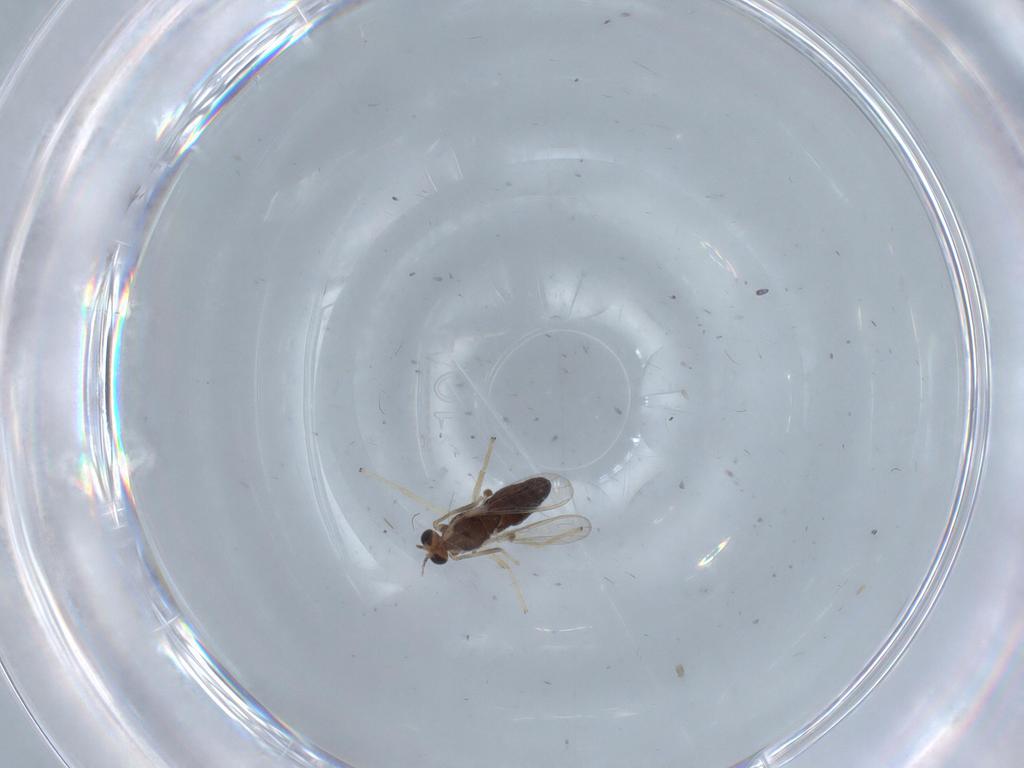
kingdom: Animalia
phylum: Arthropoda
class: Insecta
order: Diptera
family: Chironomidae
